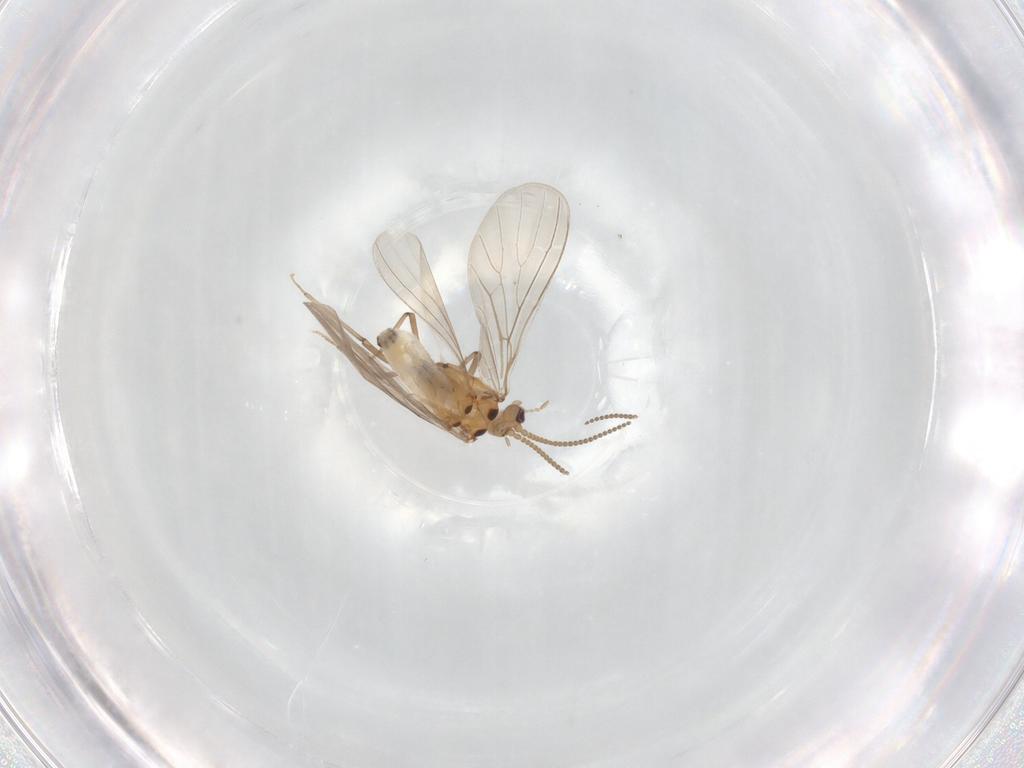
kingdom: Animalia
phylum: Arthropoda
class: Insecta
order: Neuroptera
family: Coniopterygidae
